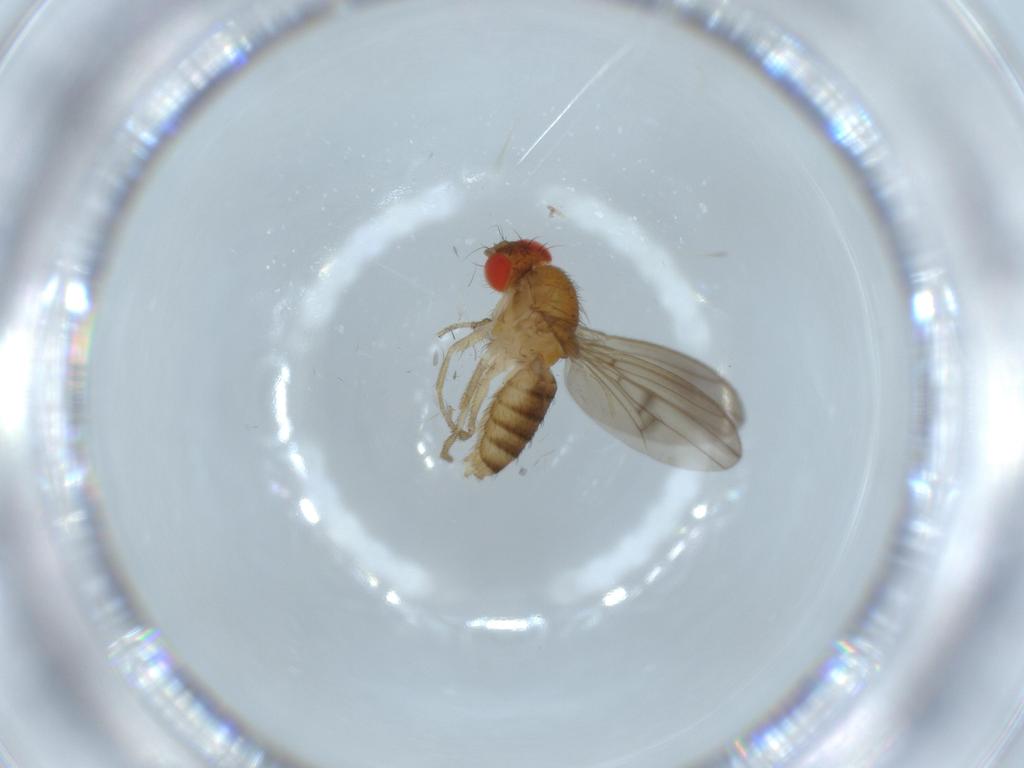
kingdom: Animalia
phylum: Arthropoda
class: Insecta
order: Diptera
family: Drosophilidae
